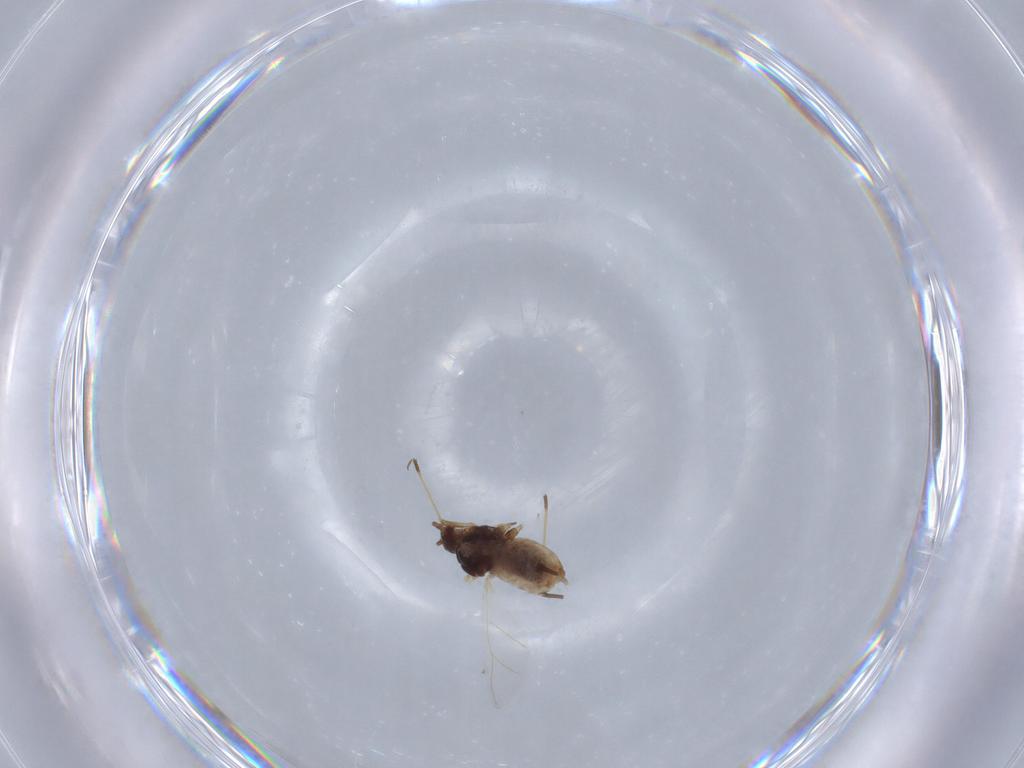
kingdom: Animalia
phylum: Arthropoda
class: Insecta
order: Hemiptera
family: Aphididae
